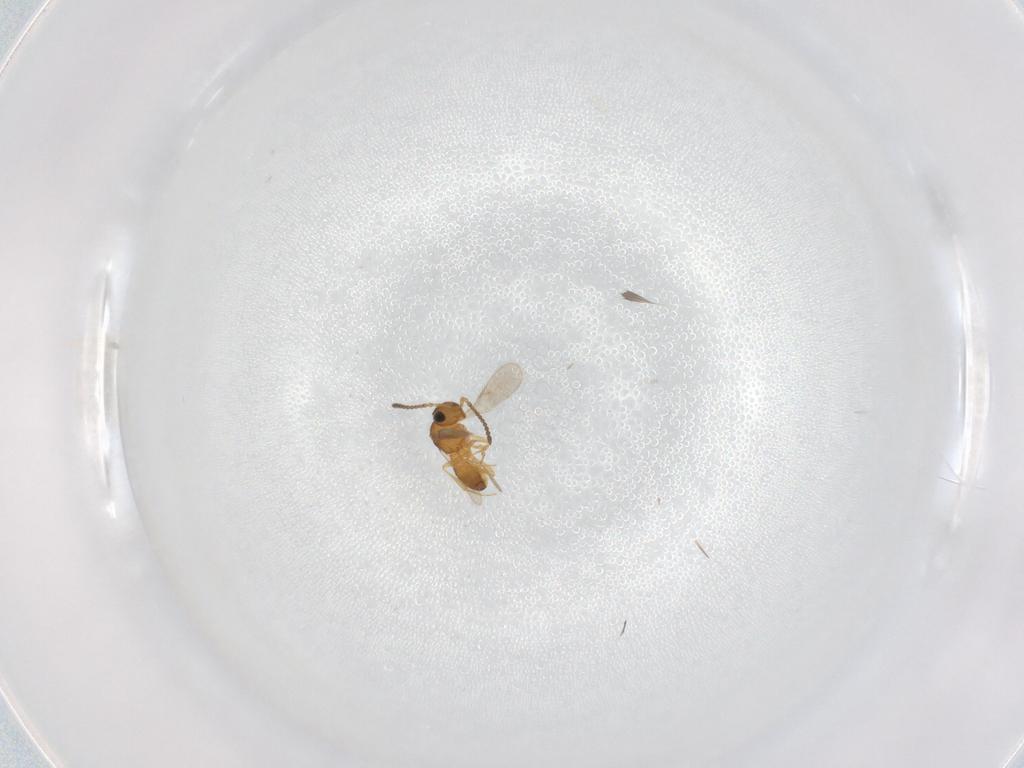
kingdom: Animalia
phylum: Arthropoda
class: Insecta
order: Hymenoptera
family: Scelionidae
